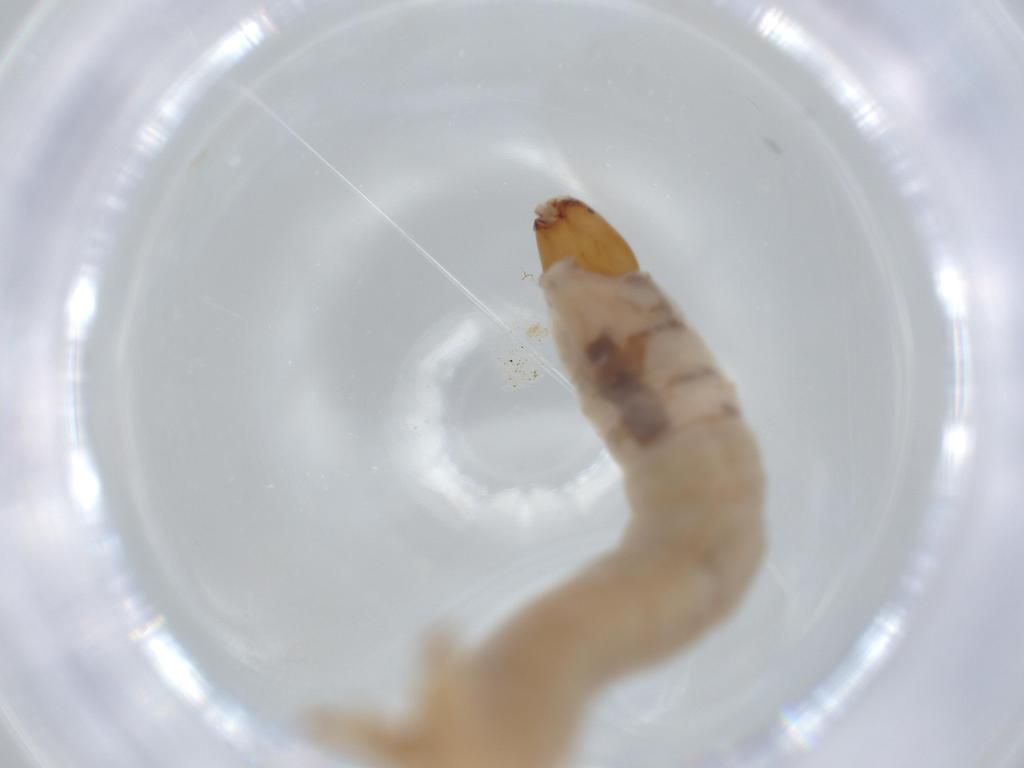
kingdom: Animalia
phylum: Arthropoda
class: Insecta
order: Diptera
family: Chironomidae
